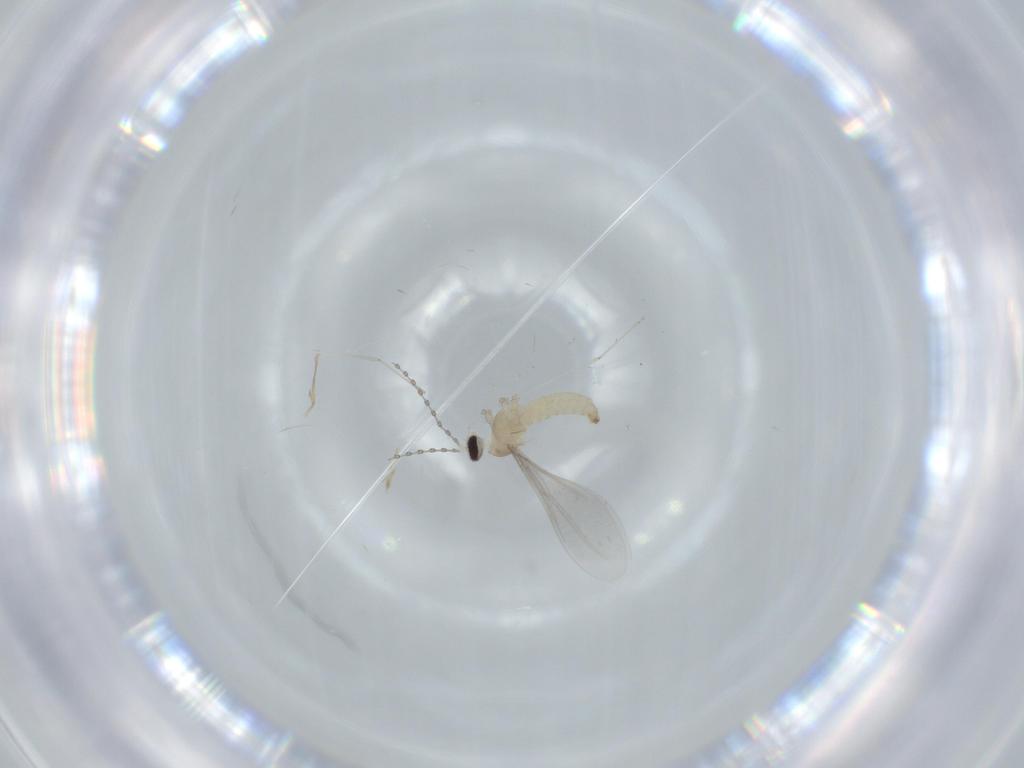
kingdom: Animalia
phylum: Arthropoda
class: Insecta
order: Diptera
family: Cecidomyiidae
